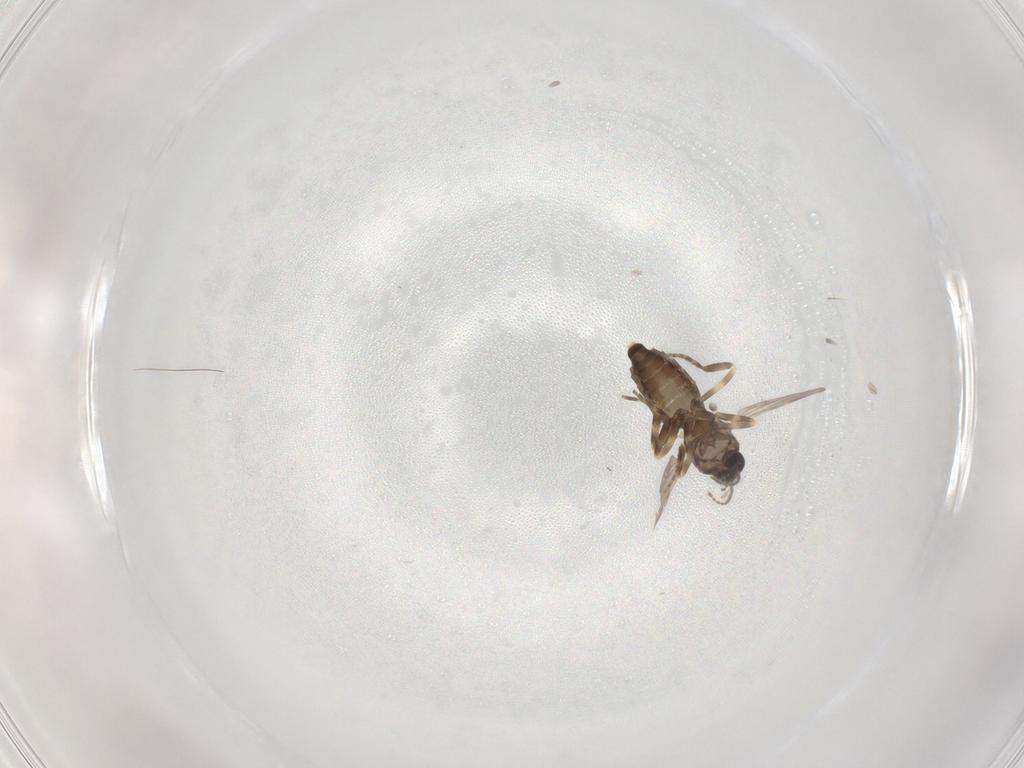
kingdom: Animalia
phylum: Arthropoda
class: Insecta
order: Diptera
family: Ceratopogonidae
